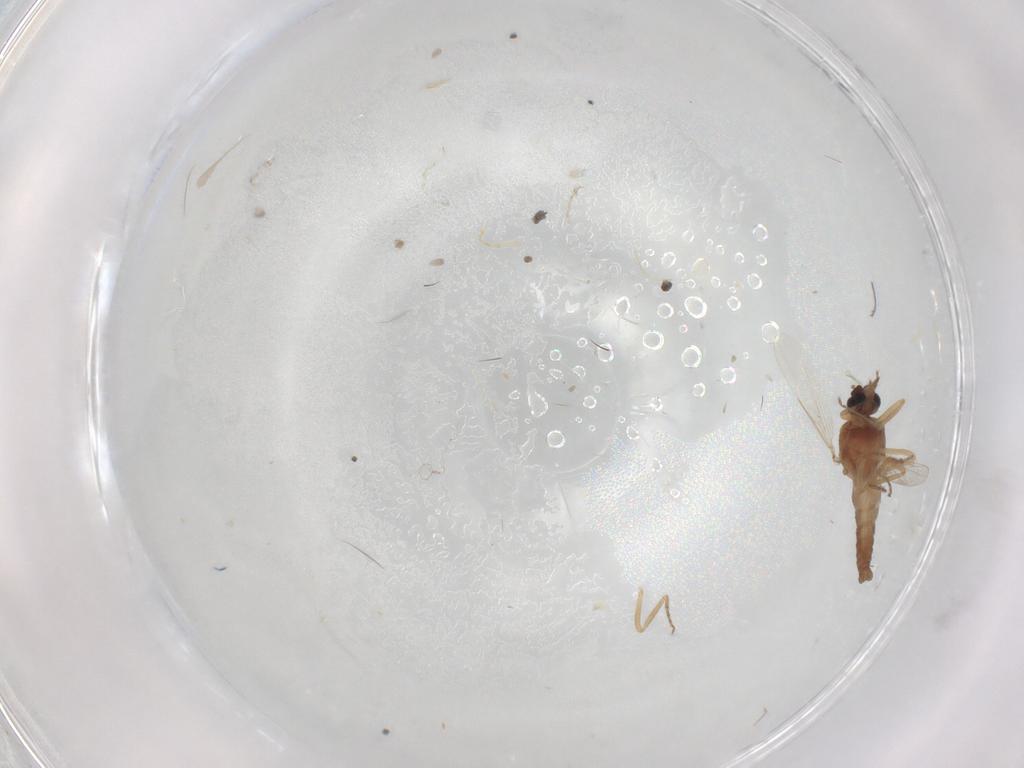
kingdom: Animalia
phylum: Arthropoda
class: Insecta
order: Diptera
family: Ceratopogonidae
